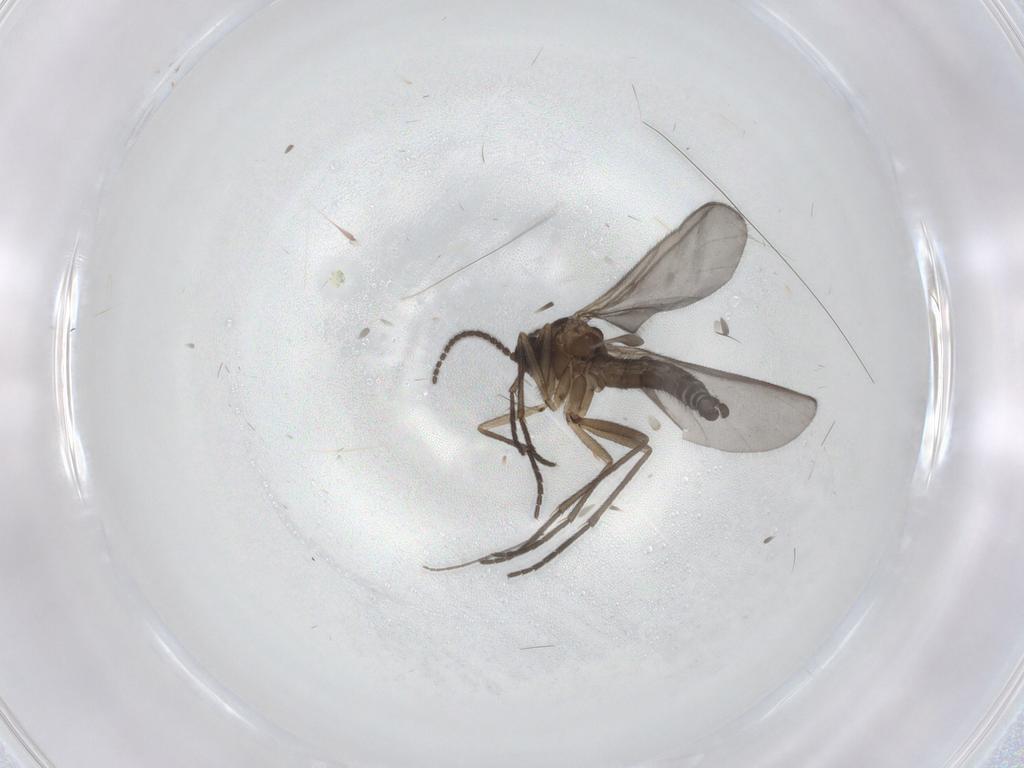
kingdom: Animalia
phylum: Arthropoda
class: Insecta
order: Diptera
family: Sciaridae
